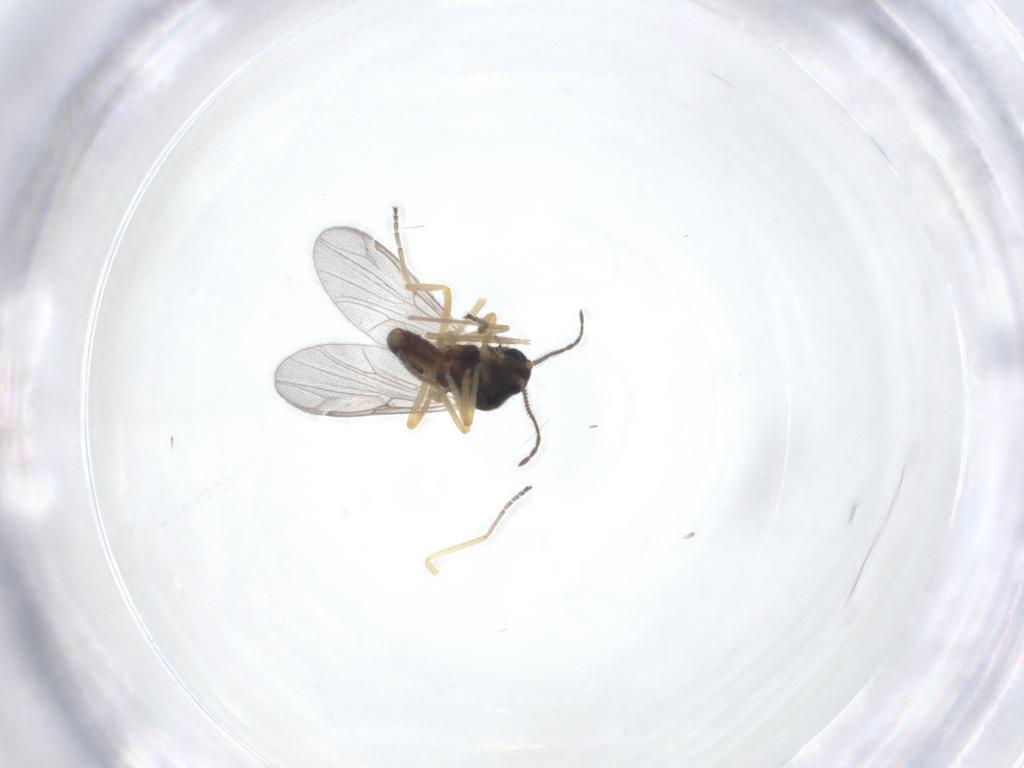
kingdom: Animalia
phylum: Arthropoda
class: Insecta
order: Diptera
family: Ceratopogonidae
